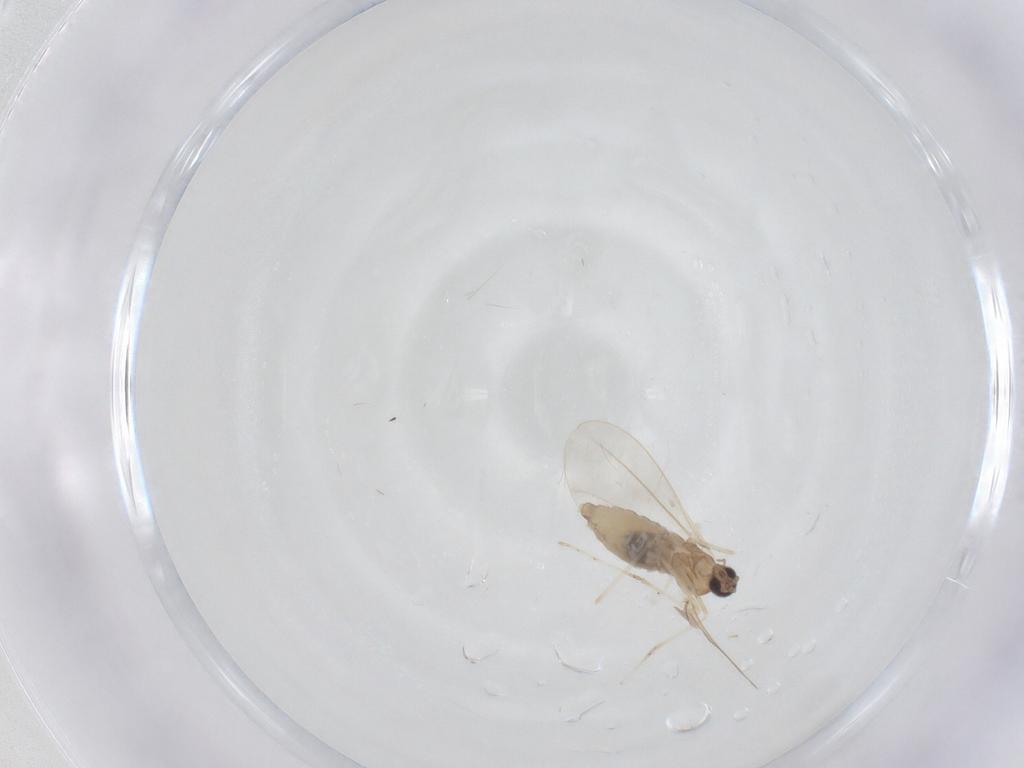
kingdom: Animalia
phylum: Arthropoda
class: Insecta
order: Diptera
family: Cecidomyiidae
